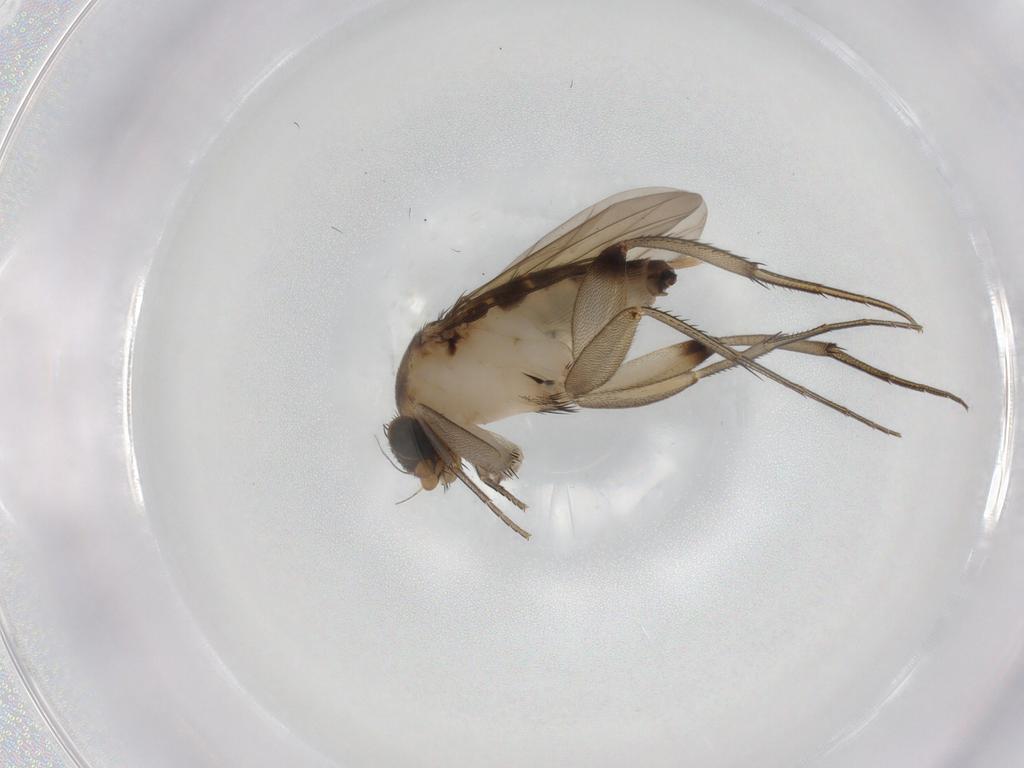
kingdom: Animalia
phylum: Arthropoda
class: Insecta
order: Diptera
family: Phoridae
